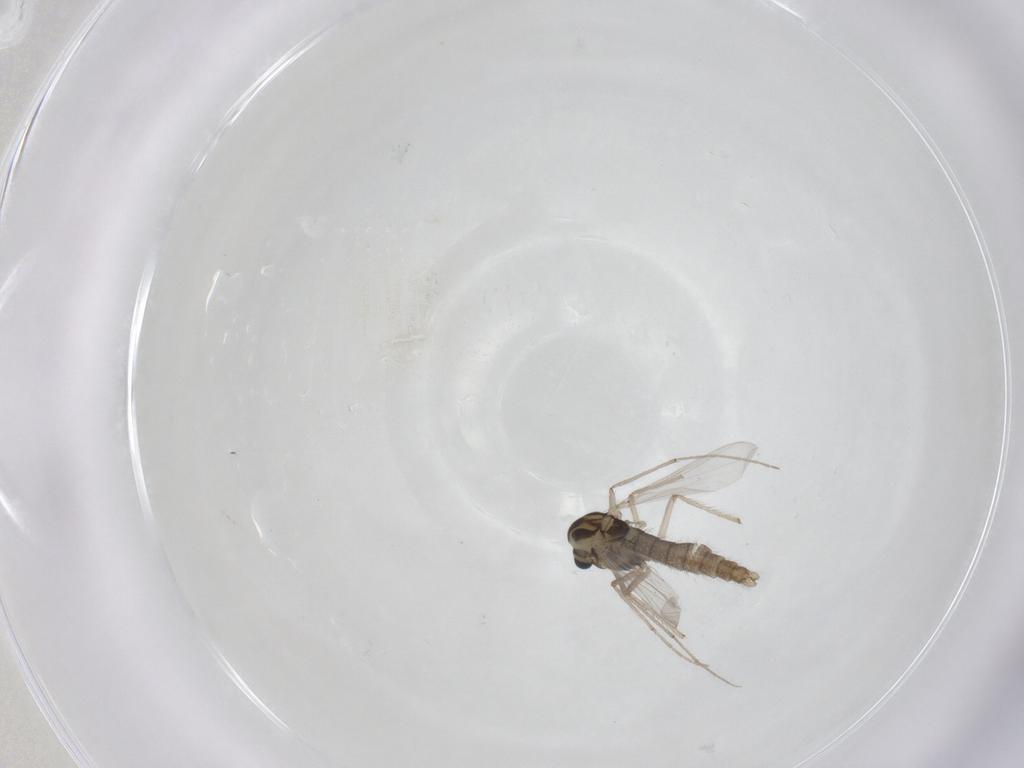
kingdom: Animalia
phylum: Arthropoda
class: Insecta
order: Diptera
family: Chironomidae
